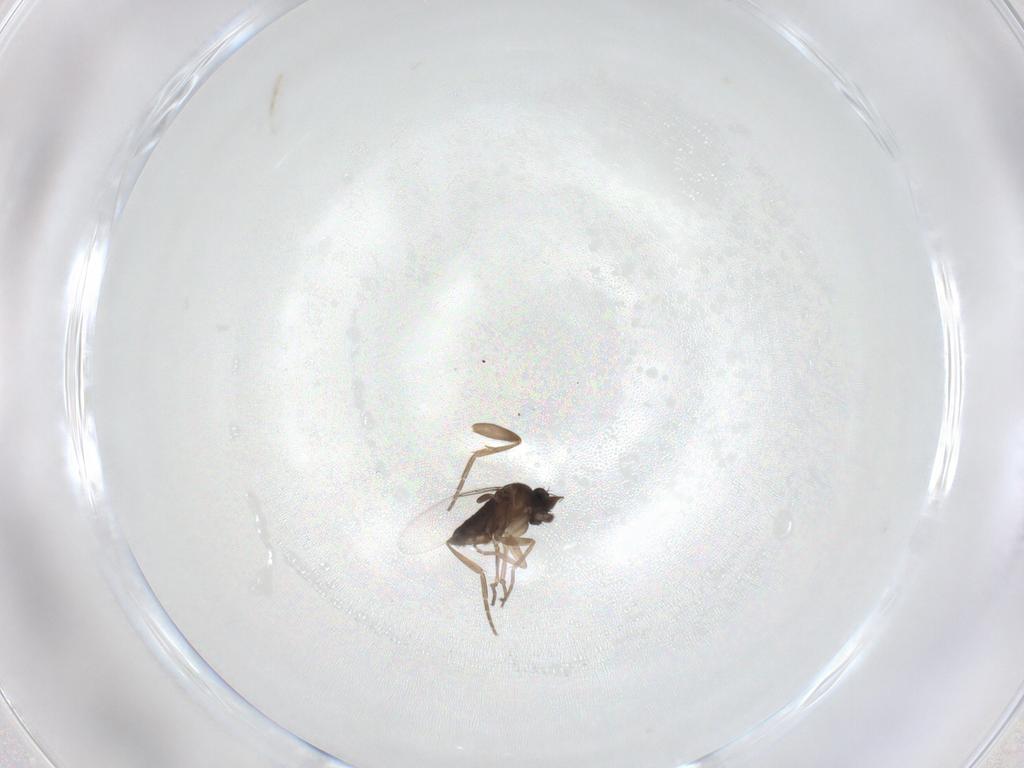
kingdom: Animalia
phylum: Arthropoda
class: Insecta
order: Diptera
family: Phoridae
